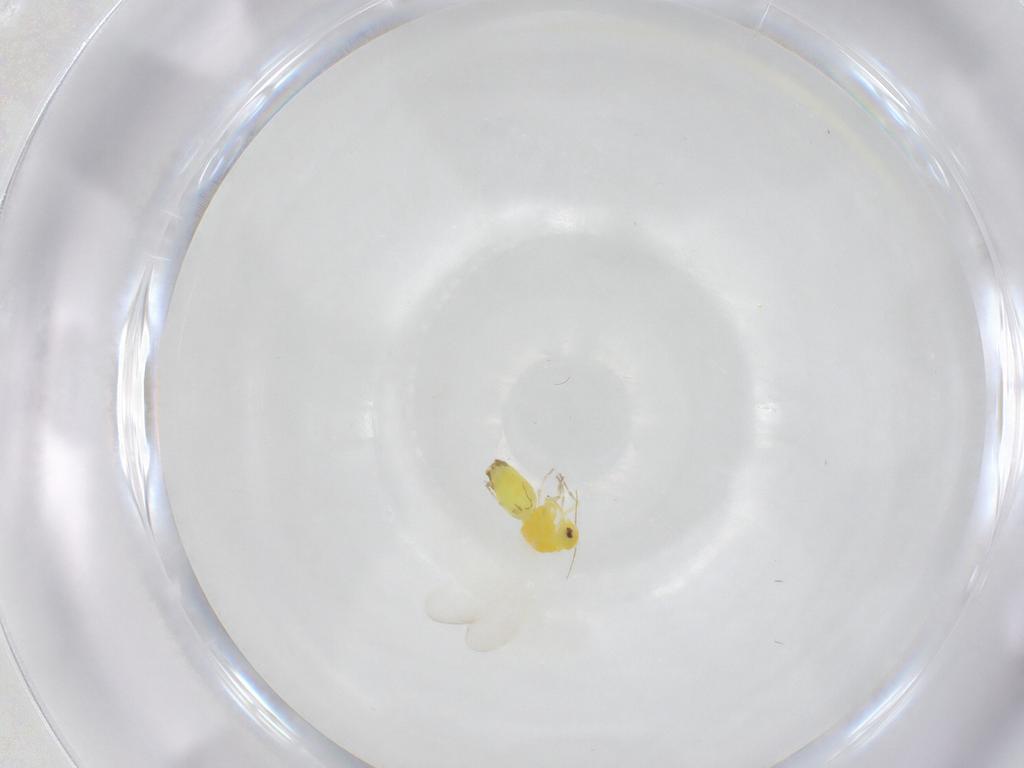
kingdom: Animalia
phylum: Arthropoda
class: Insecta
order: Hemiptera
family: Aleyrodidae
